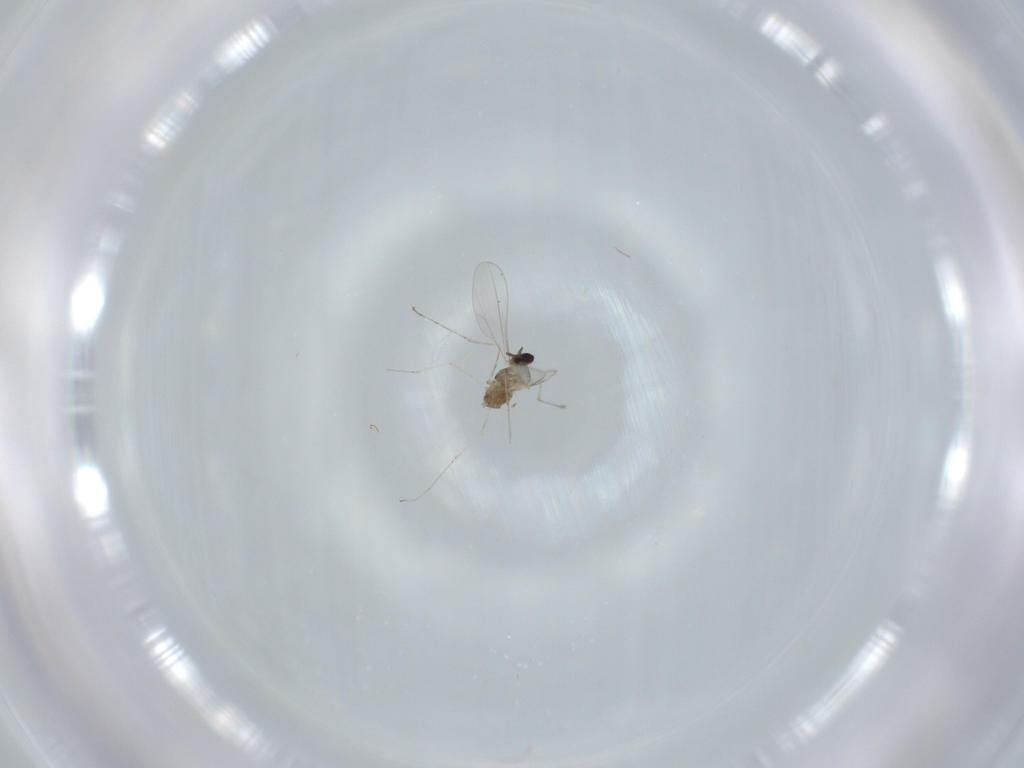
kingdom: Animalia
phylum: Arthropoda
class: Insecta
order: Diptera
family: Cecidomyiidae
